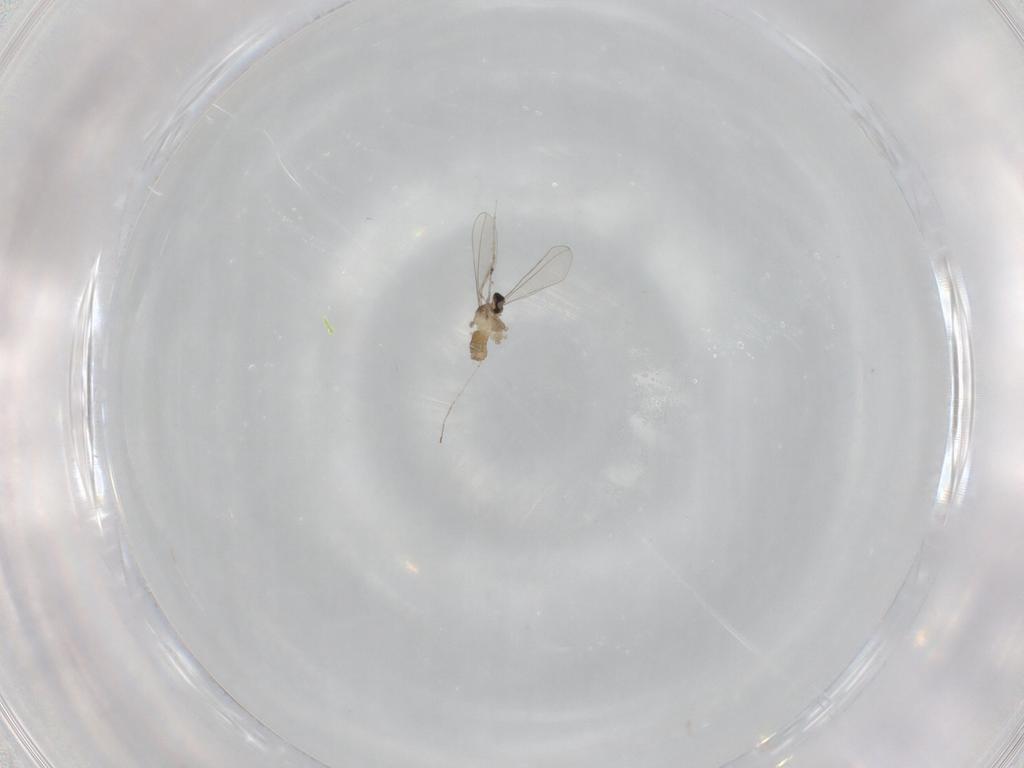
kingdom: Animalia
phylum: Arthropoda
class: Insecta
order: Diptera
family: Cecidomyiidae
